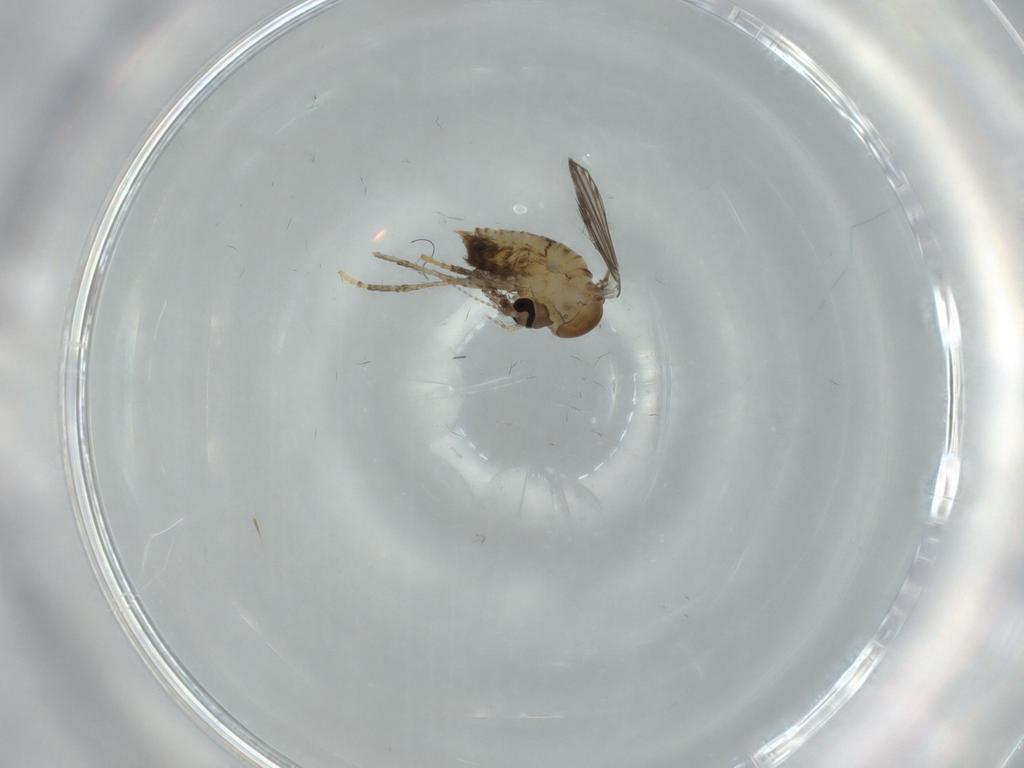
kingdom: Animalia
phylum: Arthropoda
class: Insecta
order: Diptera
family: Psychodidae
